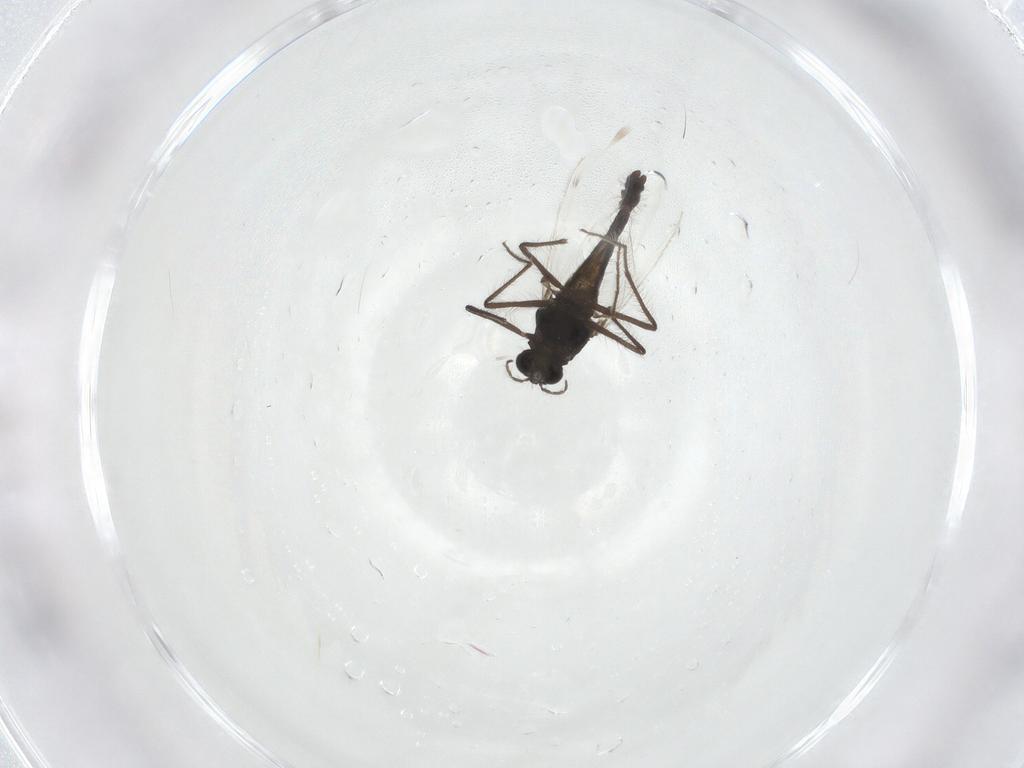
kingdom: Animalia
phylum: Arthropoda
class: Insecta
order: Diptera
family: Chironomidae
